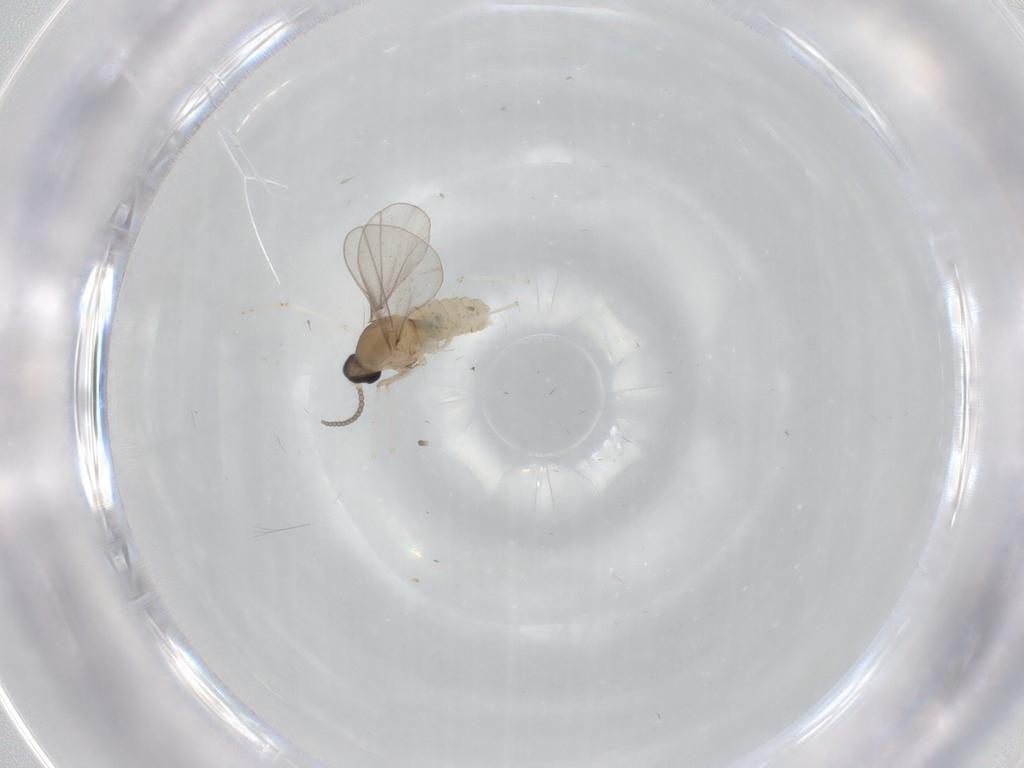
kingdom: Animalia
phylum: Arthropoda
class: Insecta
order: Diptera
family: Cecidomyiidae
